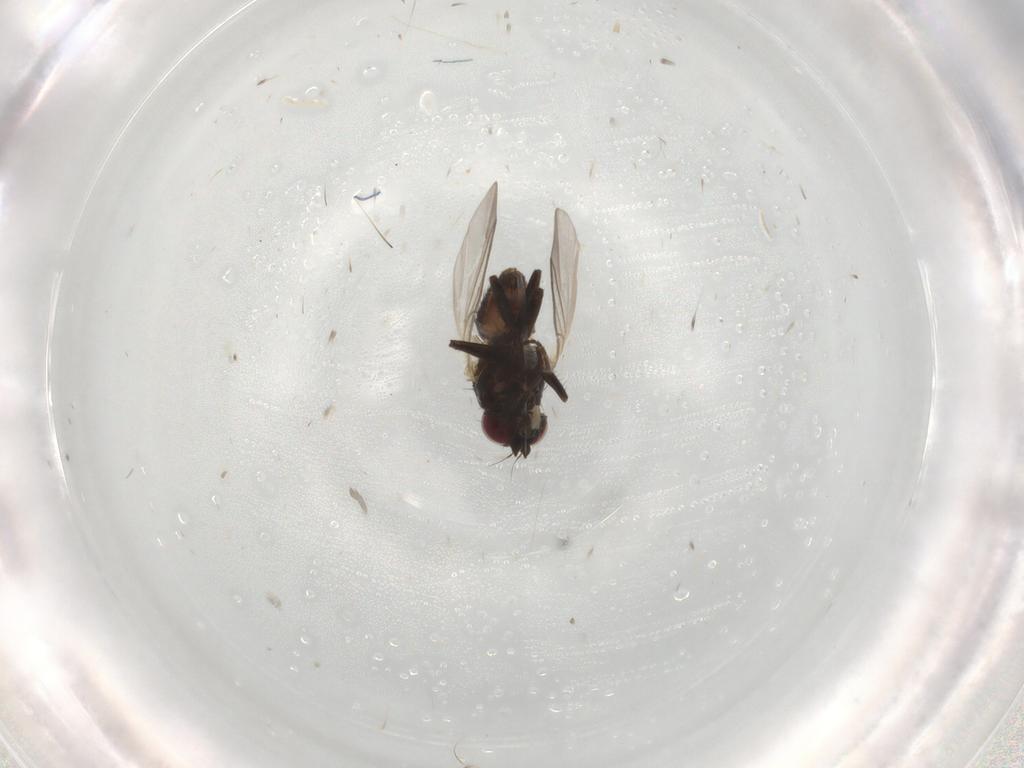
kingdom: Animalia
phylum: Arthropoda
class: Insecta
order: Diptera
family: Agromyzidae
